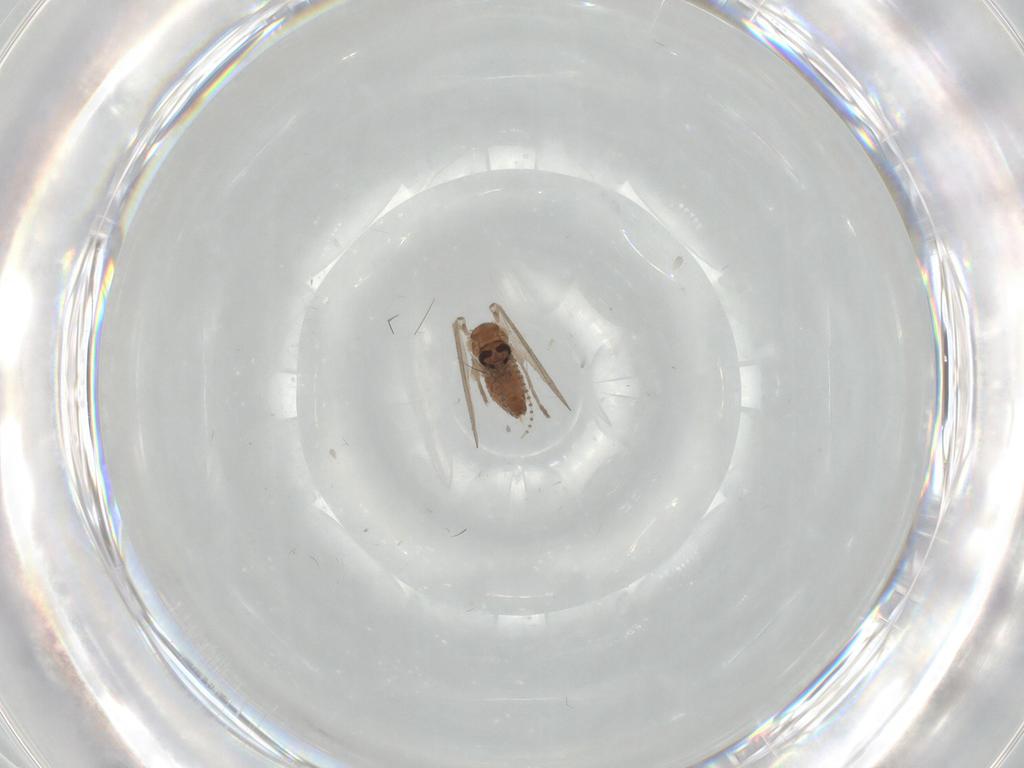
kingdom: Animalia
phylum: Arthropoda
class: Insecta
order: Diptera
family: Psychodidae
